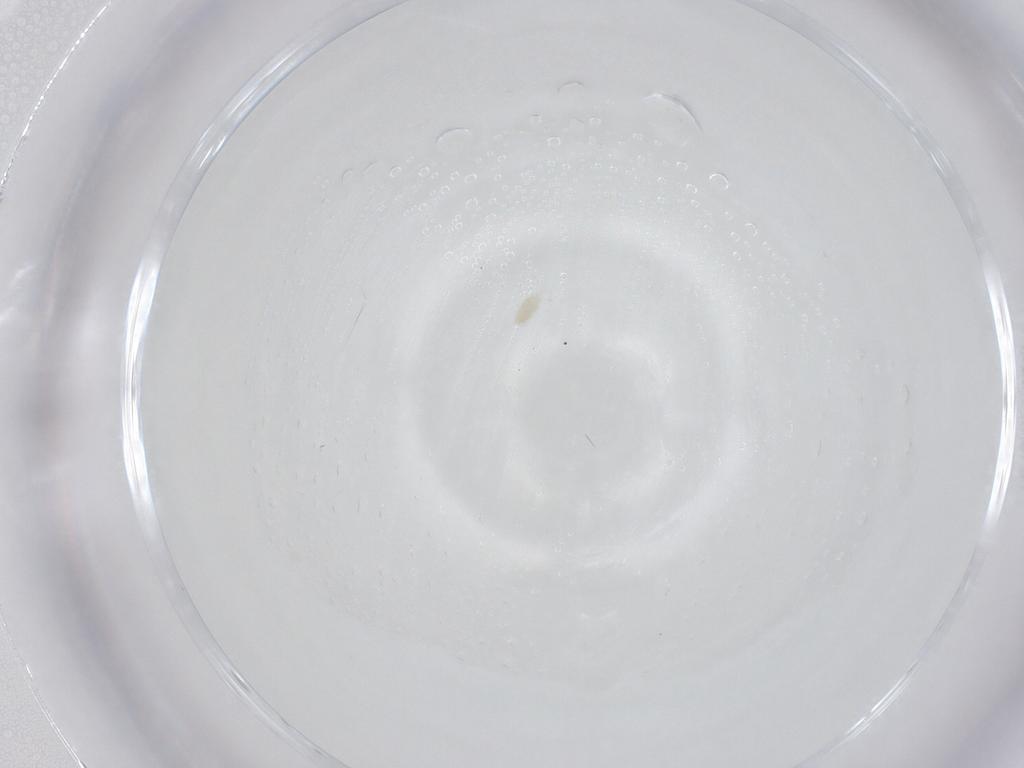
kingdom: Animalia
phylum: Arthropoda
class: Arachnida
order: Trombidiformes
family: Eupodidae
